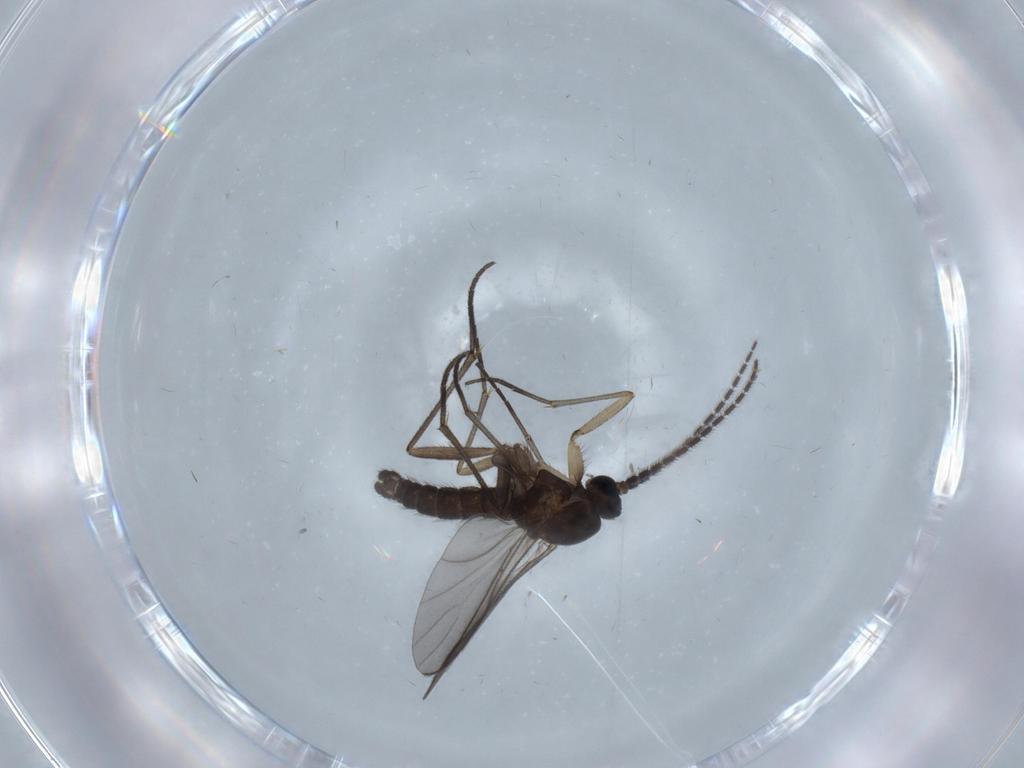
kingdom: Animalia
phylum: Arthropoda
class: Insecta
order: Diptera
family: Sciaridae
